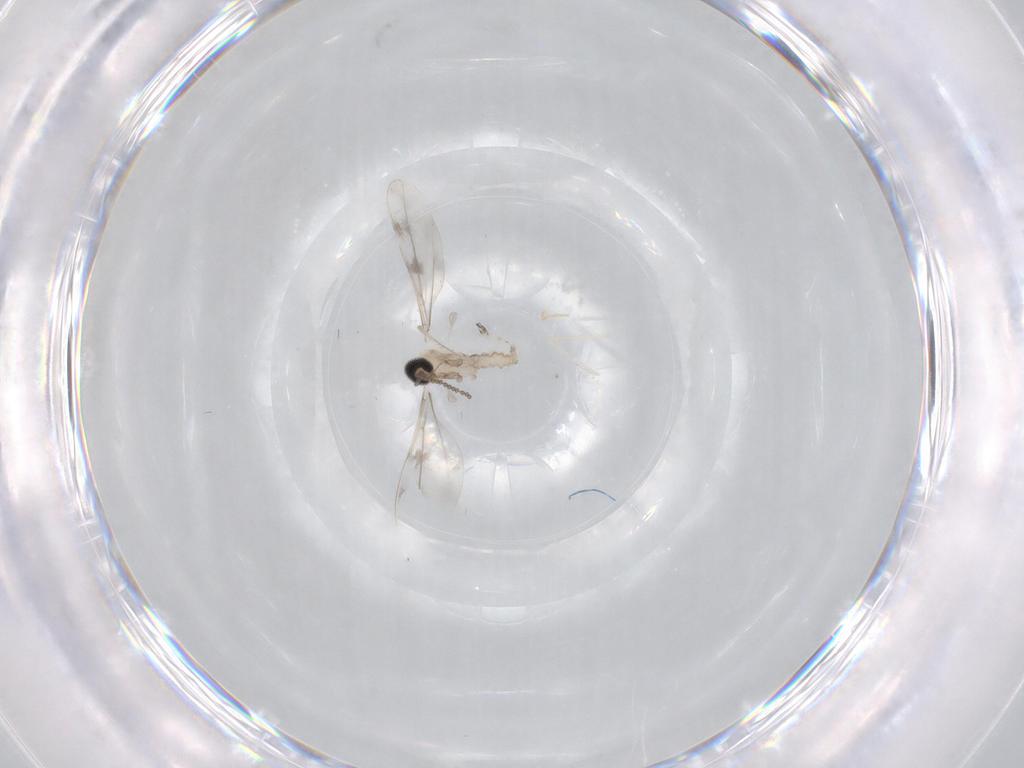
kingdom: Animalia
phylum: Arthropoda
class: Insecta
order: Diptera
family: Cecidomyiidae
